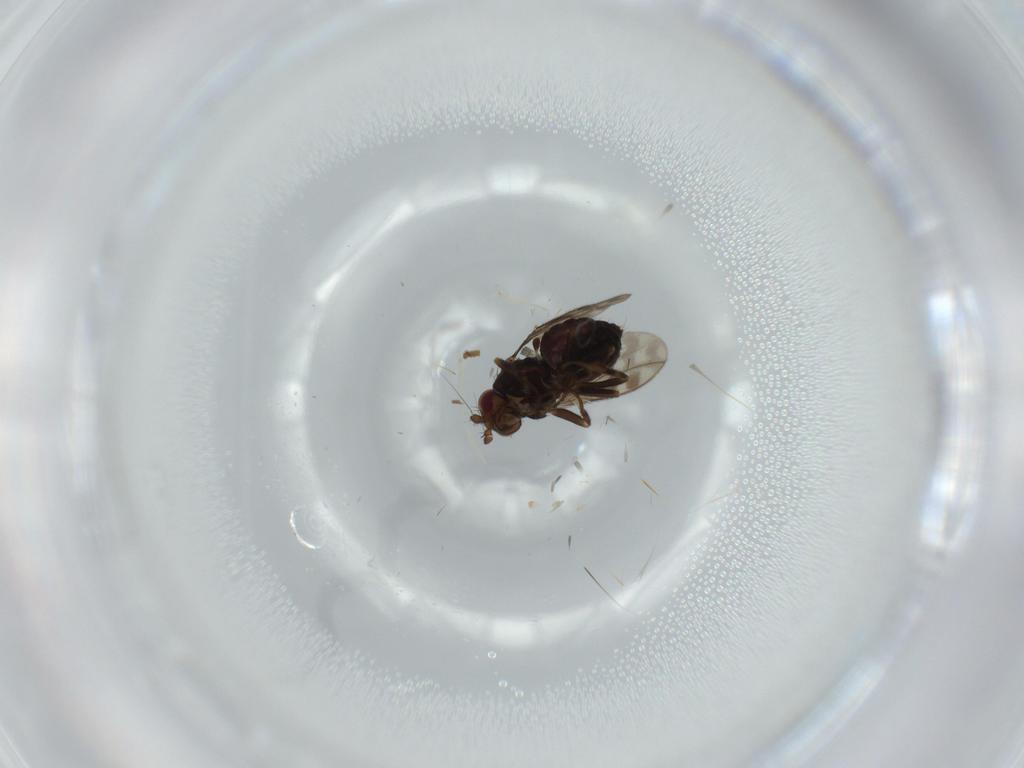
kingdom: Animalia
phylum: Arthropoda
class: Insecta
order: Diptera
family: Sphaeroceridae
